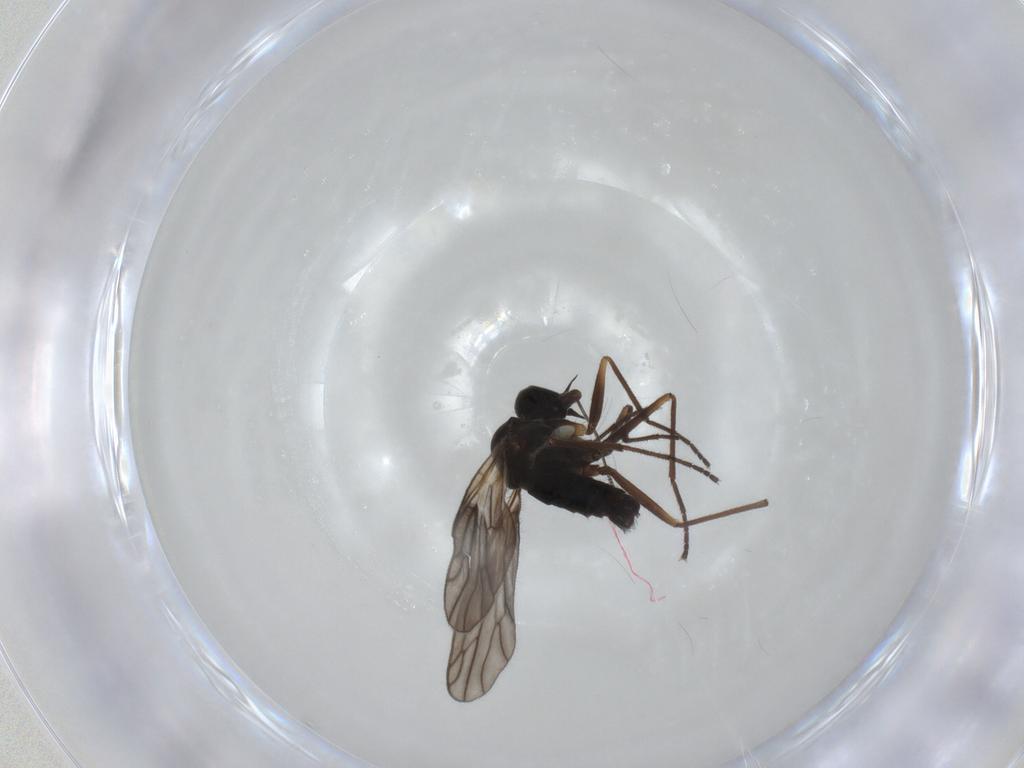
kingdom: Animalia
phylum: Arthropoda
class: Insecta
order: Diptera
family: Empididae
